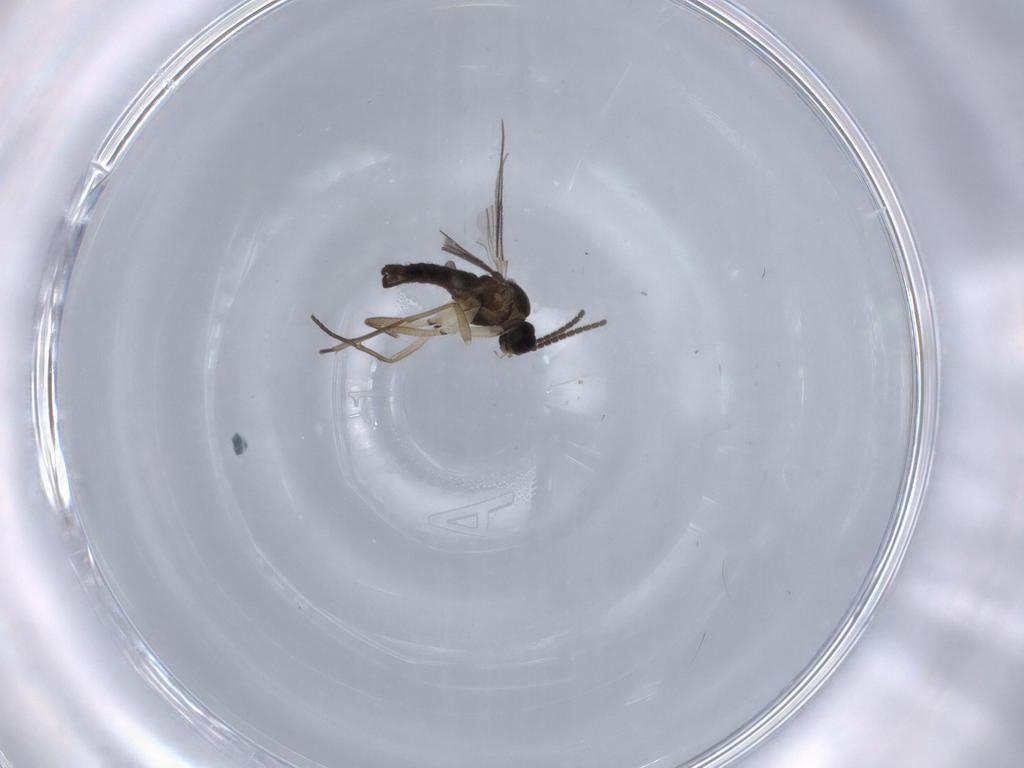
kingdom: Animalia
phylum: Arthropoda
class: Insecta
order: Diptera
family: Sciaridae
